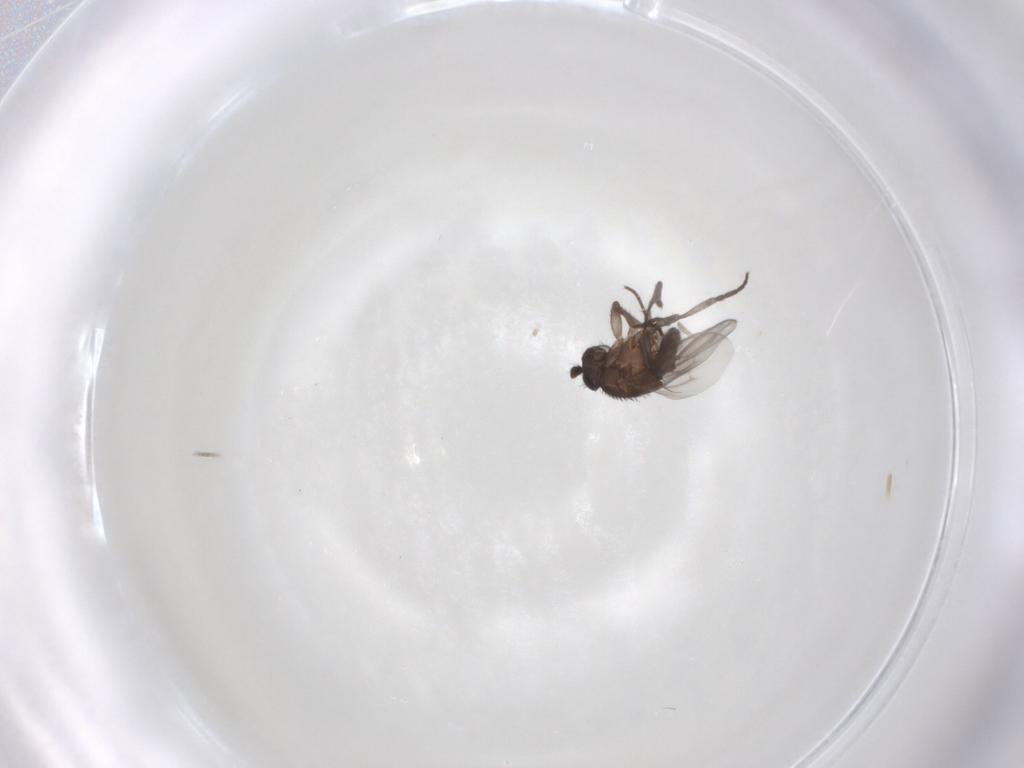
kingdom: Animalia
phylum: Arthropoda
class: Insecta
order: Diptera
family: Sphaeroceridae
